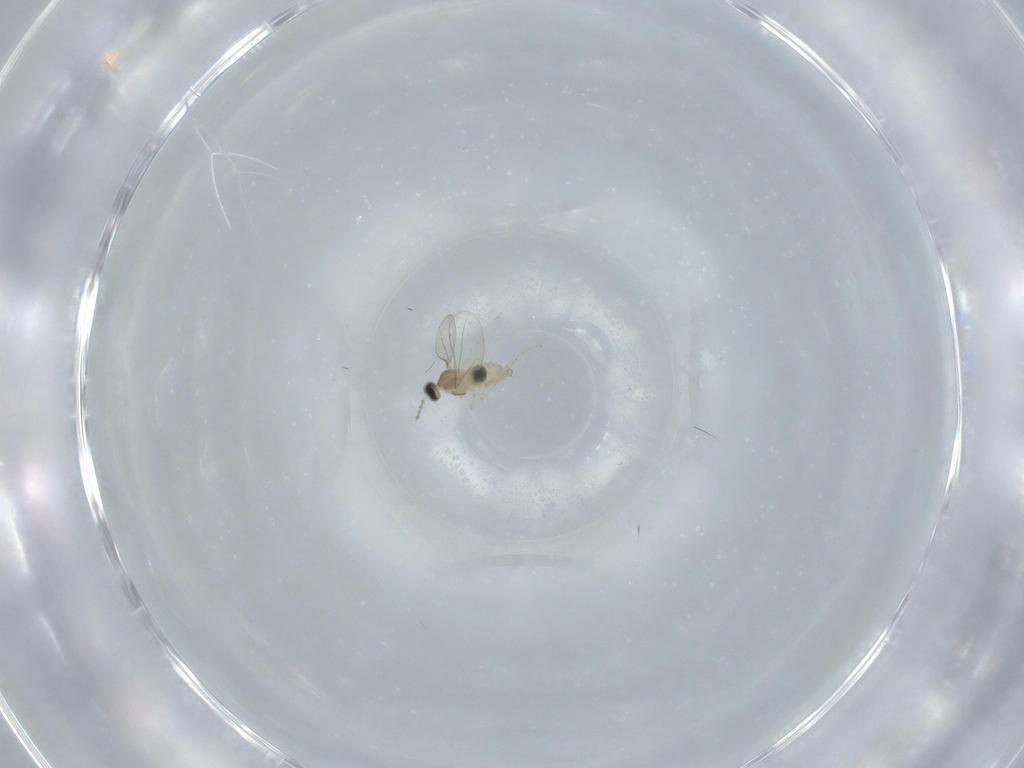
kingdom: Animalia
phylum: Arthropoda
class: Insecta
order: Diptera
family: Cecidomyiidae
